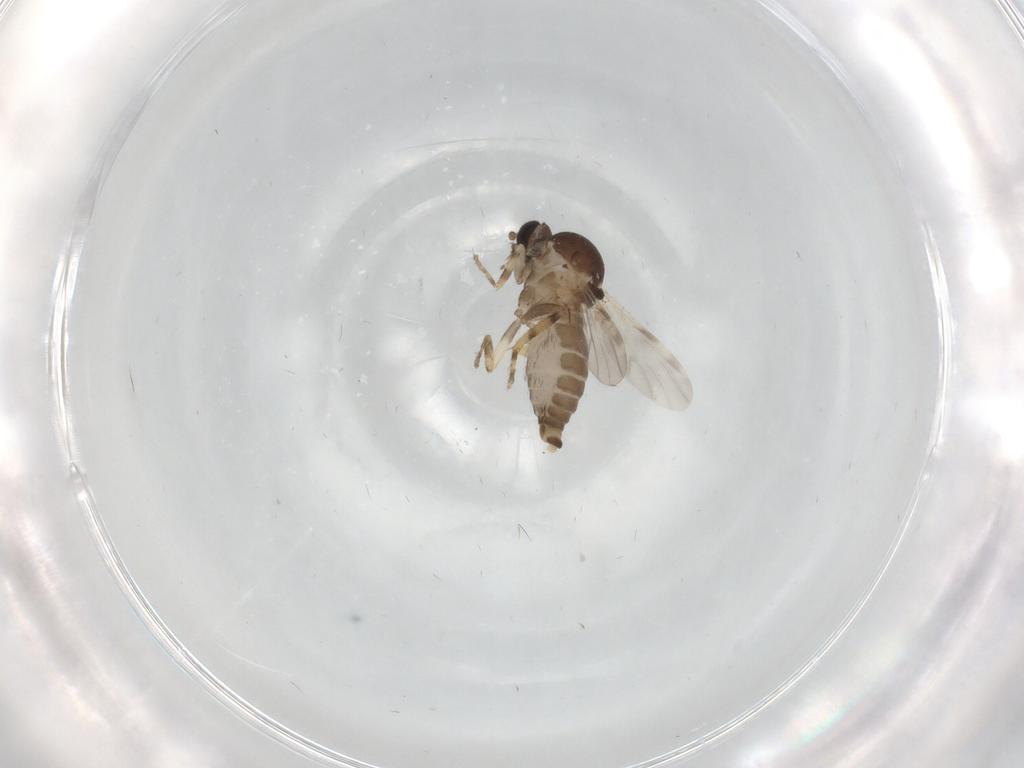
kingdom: Animalia
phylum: Arthropoda
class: Insecta
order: Diptera
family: Ceratopogonidae
